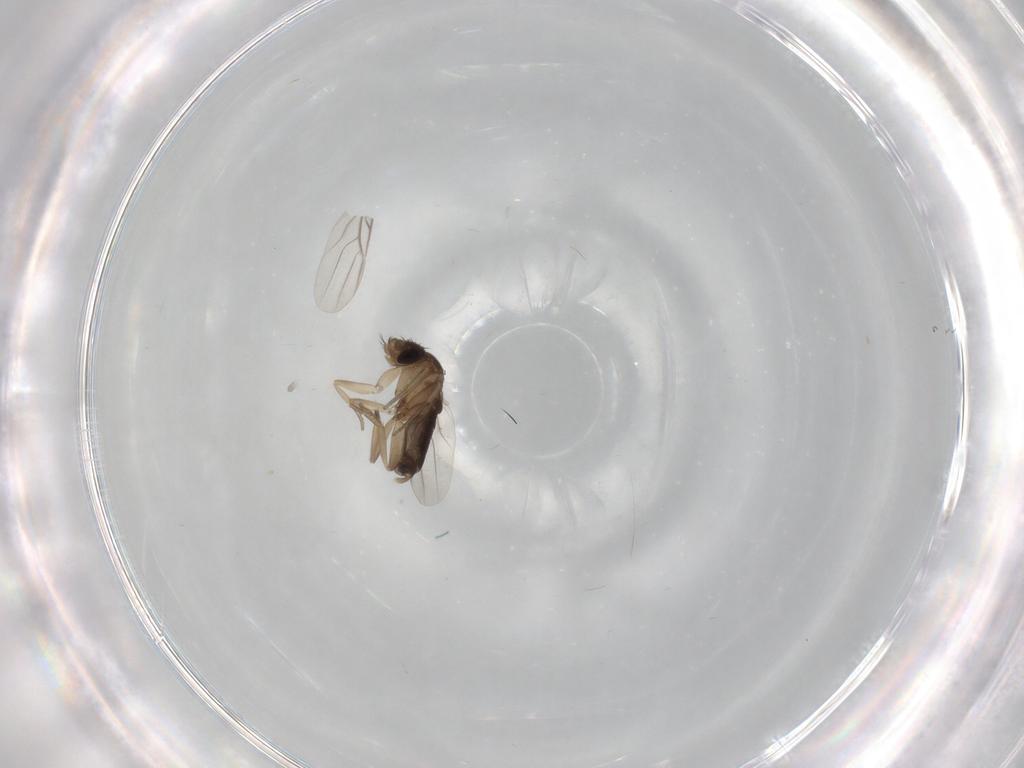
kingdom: Animalia
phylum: Arthropoda
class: Insecta
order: Diptera
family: Phoridae
